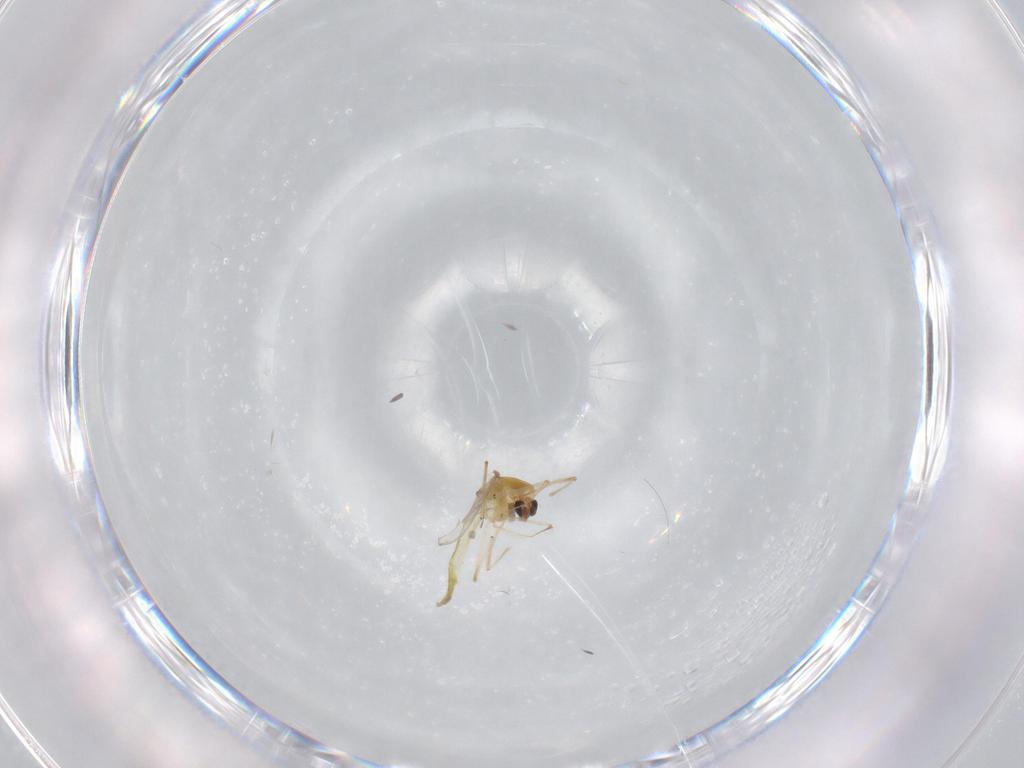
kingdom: Animalia
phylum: Arthropoda
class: Insecta
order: Diptera
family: Chironomidae
